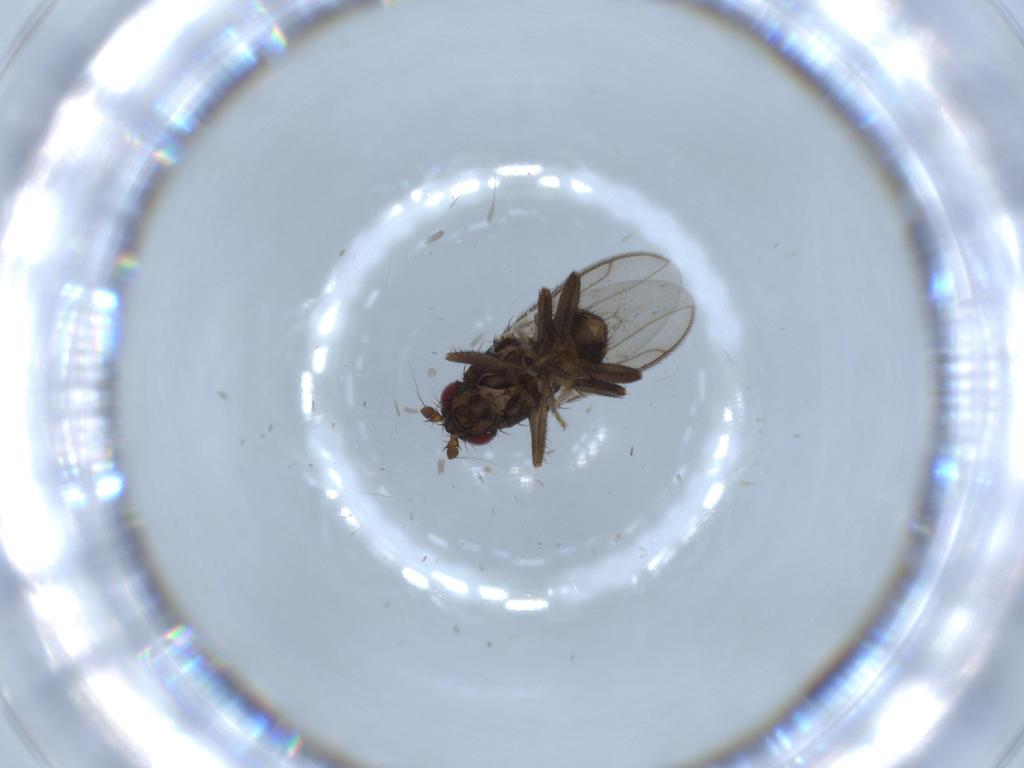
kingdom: Animalia
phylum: Arthropoda
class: Insecta
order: Diptera
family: Sphaeroceridae
